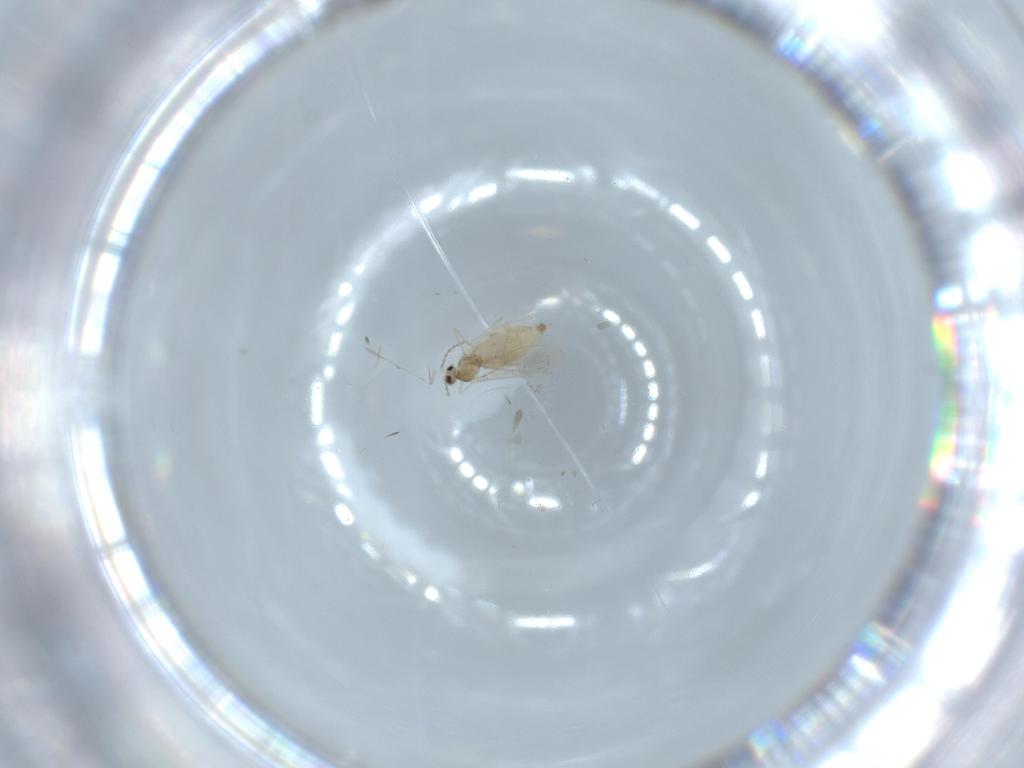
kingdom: Animalia
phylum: Arthropoda
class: Insecta
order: Diptera
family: Cecidomyiidae
